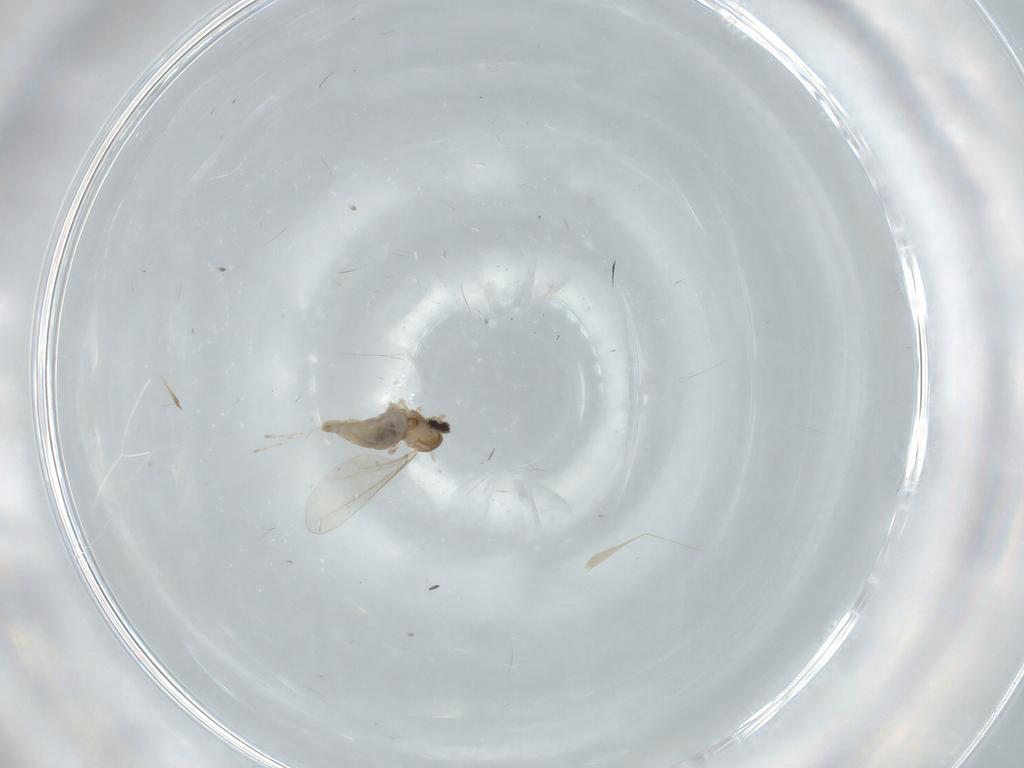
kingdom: Animalia
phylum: Arthropoda
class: Insecta
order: Diptera
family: Cecidomyiidae
